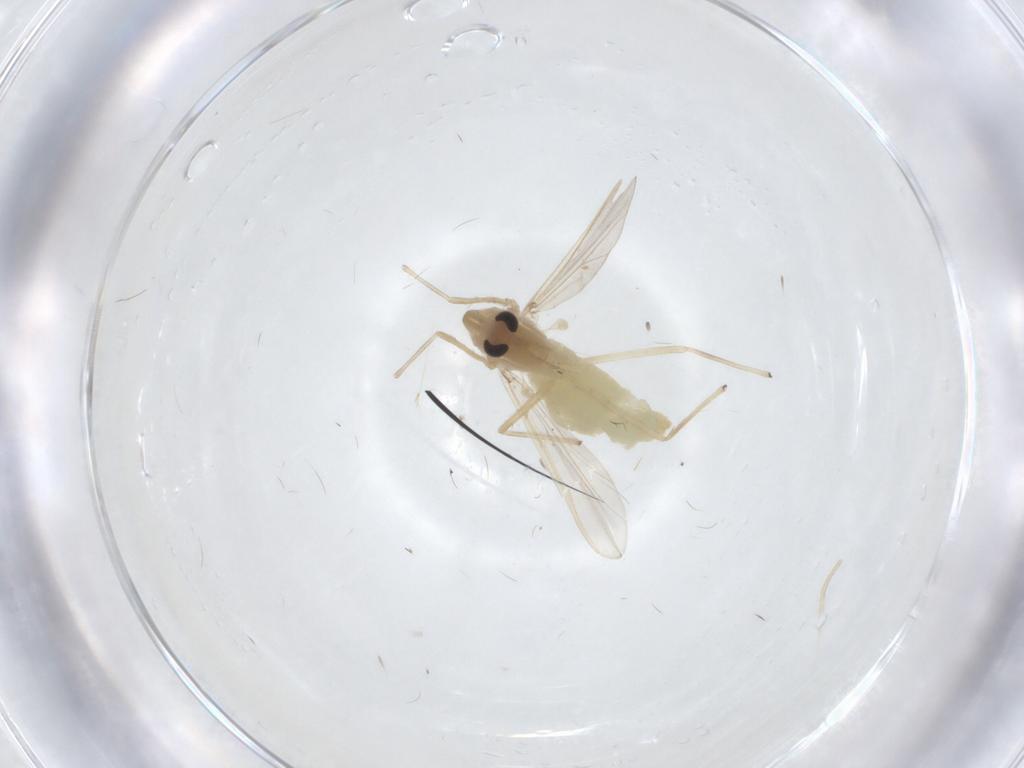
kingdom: Animalia
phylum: Arthropoda
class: Insecta
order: Diptera
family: Chironomidae
